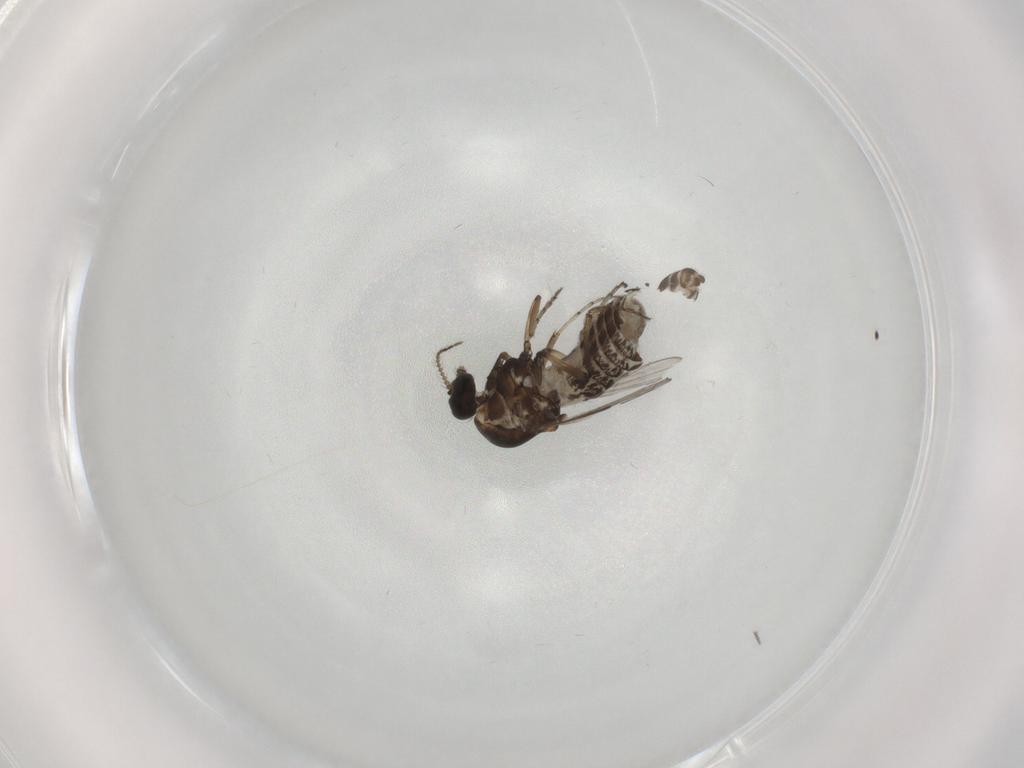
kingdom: Animalia
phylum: Arthropoda
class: Insecta
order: Diptera
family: Ceratopogonidae
